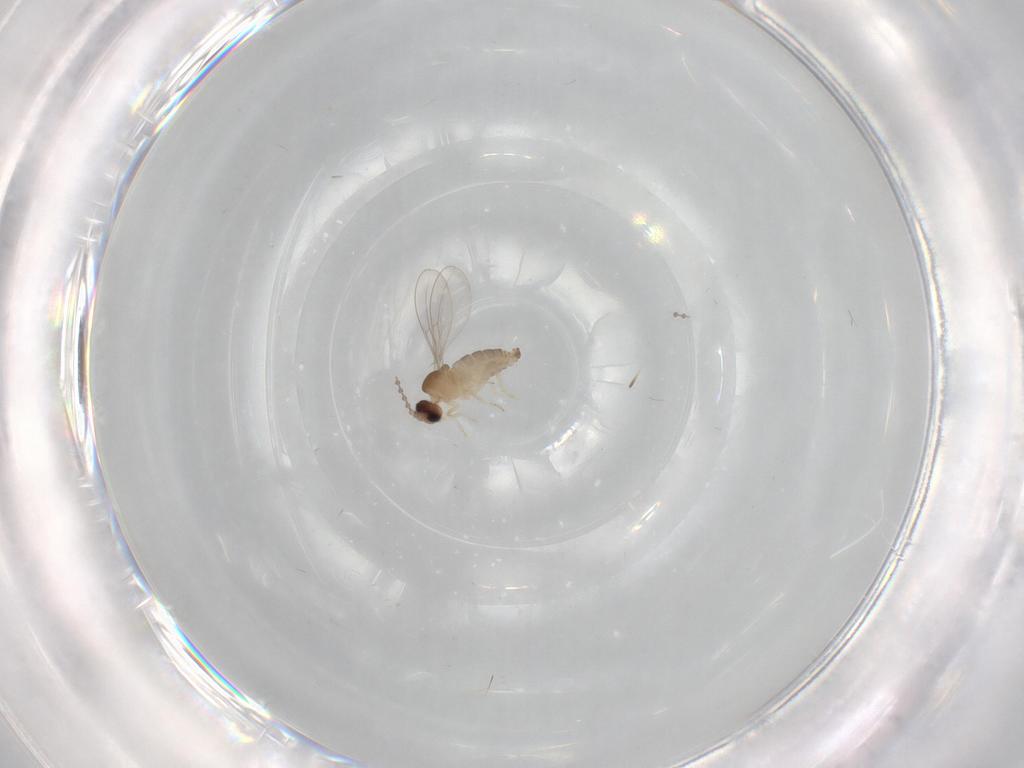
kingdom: Animalia
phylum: Arthropoda
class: Insecta
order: Diptera
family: Cecidomyiidae
